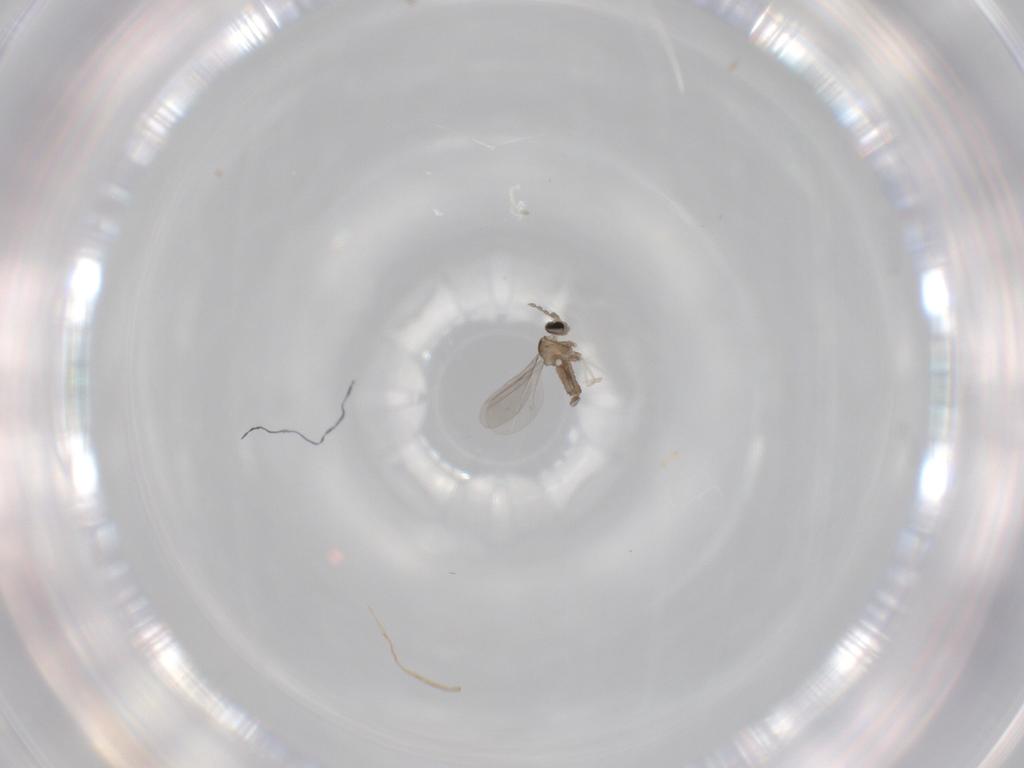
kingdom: Animalia
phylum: Arthropoda
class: Insecta
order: Diptera
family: Cecidomyiidae
